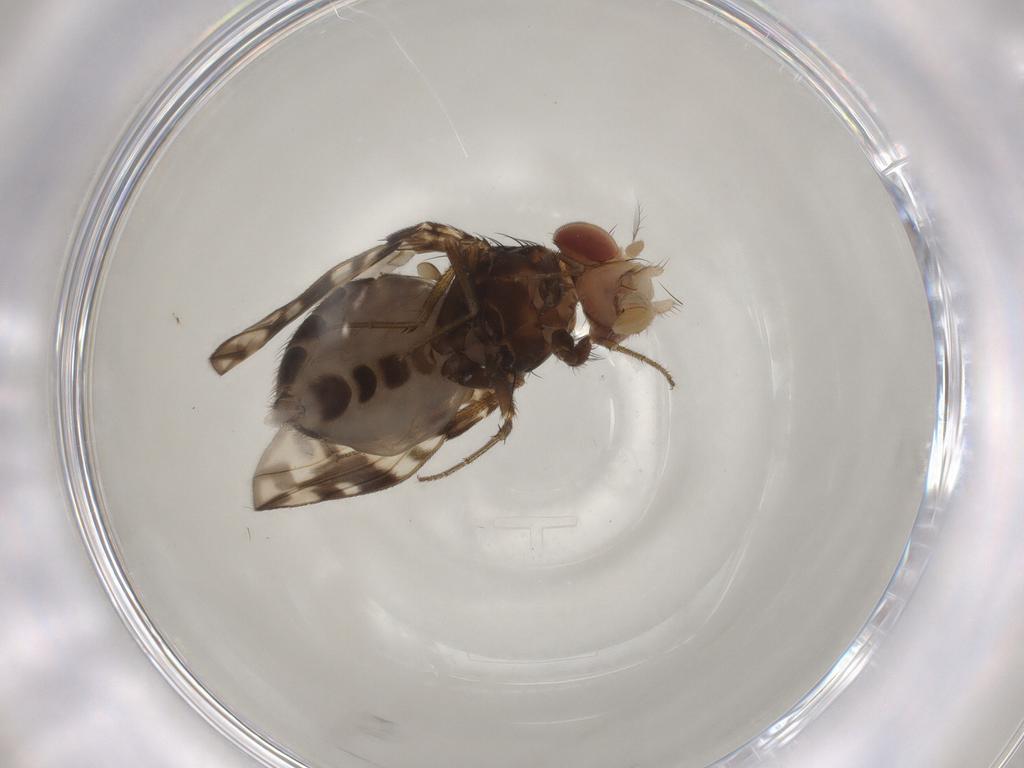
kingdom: Animalia
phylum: Arthropoda
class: Insecta
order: Diptera
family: Drosophilidae
